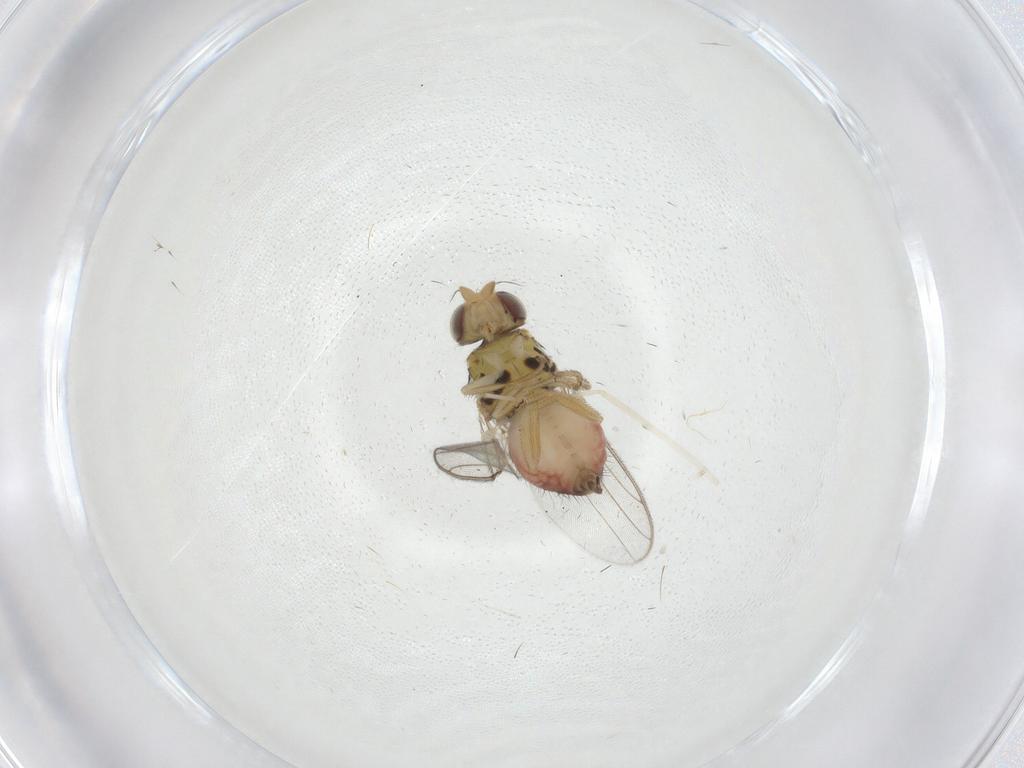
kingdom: Animalia
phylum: Arthropoda
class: Insecta
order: Diptera
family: Chloropidae
